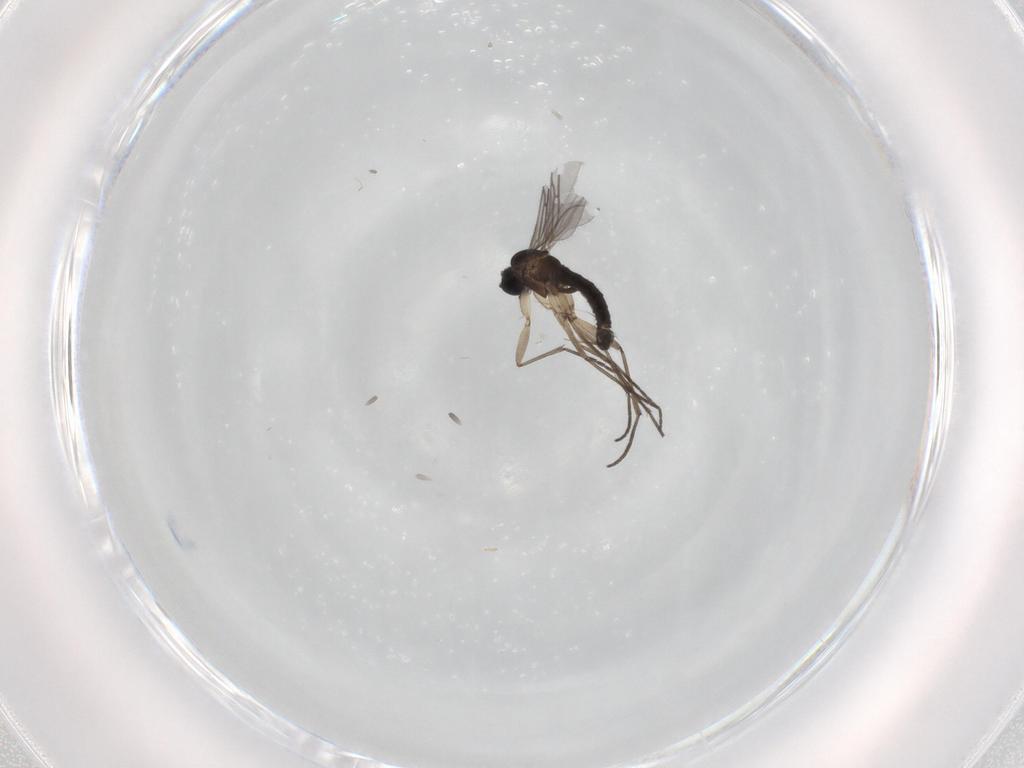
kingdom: Animalia
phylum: Arthropoda
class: Insecta
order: Diptera
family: Sciaridae
